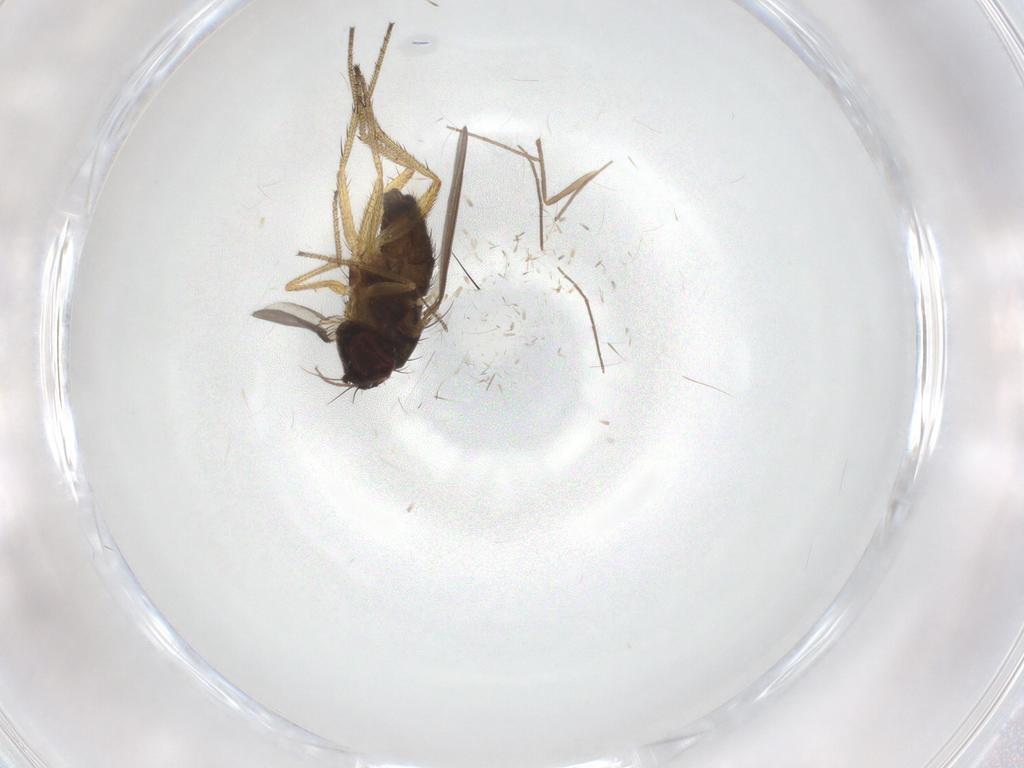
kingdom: Animalia
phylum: Arthropoda
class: Insecta
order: Diptera
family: Chironomidae
